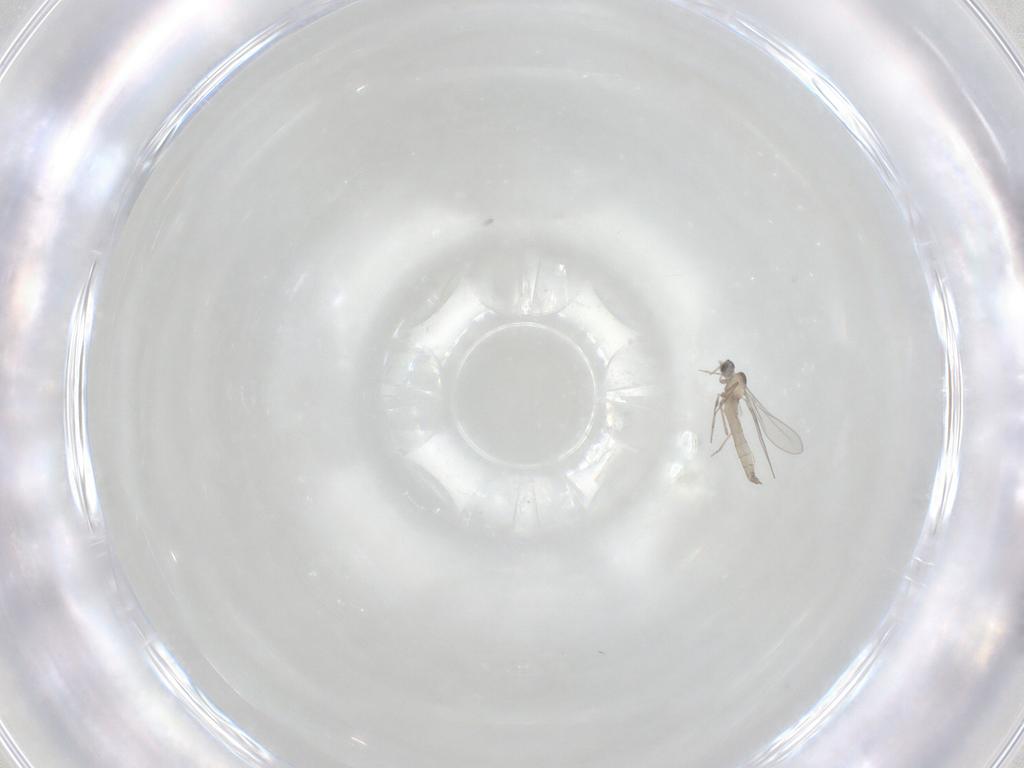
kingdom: Animalia
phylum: Arthropoda
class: Insecta
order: Diptera
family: Cecidomyiidae
